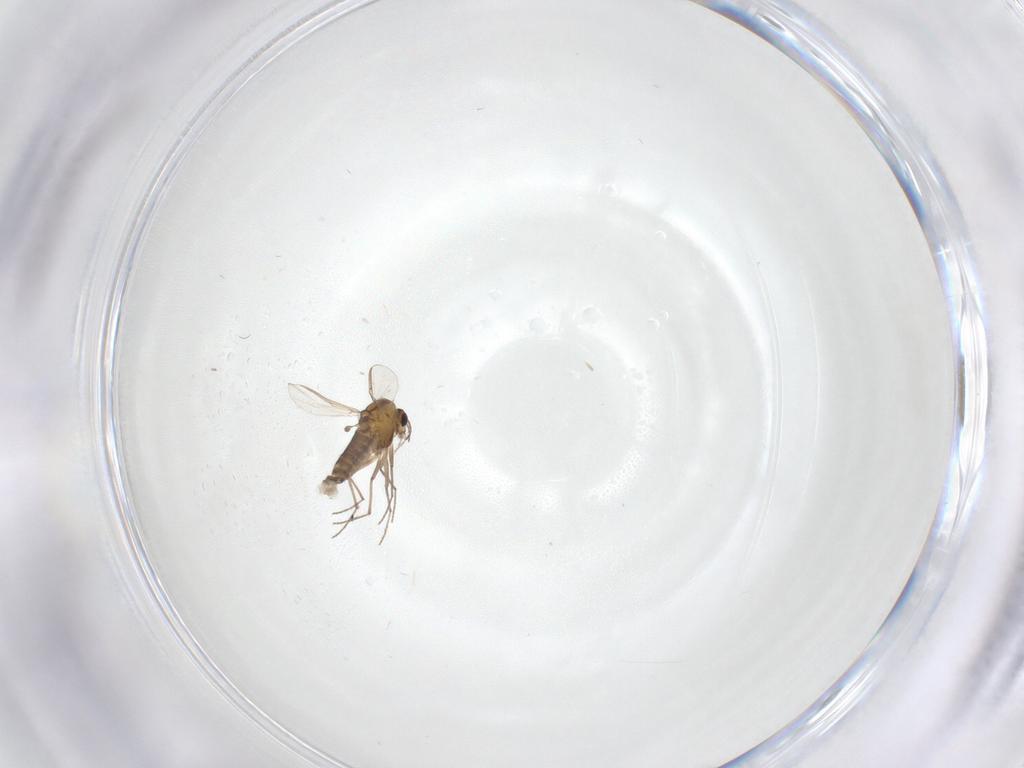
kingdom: Animalia
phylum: Arthropoda
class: Insecta
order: Diptera
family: Chironomidae
